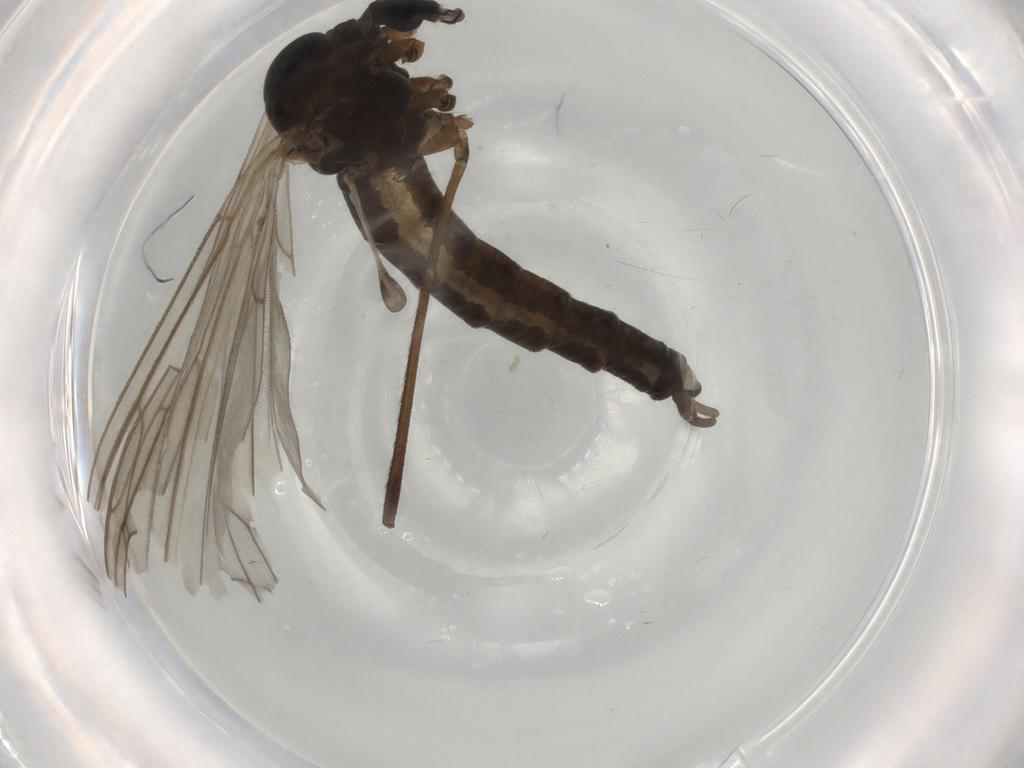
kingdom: Animalia
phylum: Arthropoda
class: Insecta
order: Diptera
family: Trichoceridae
